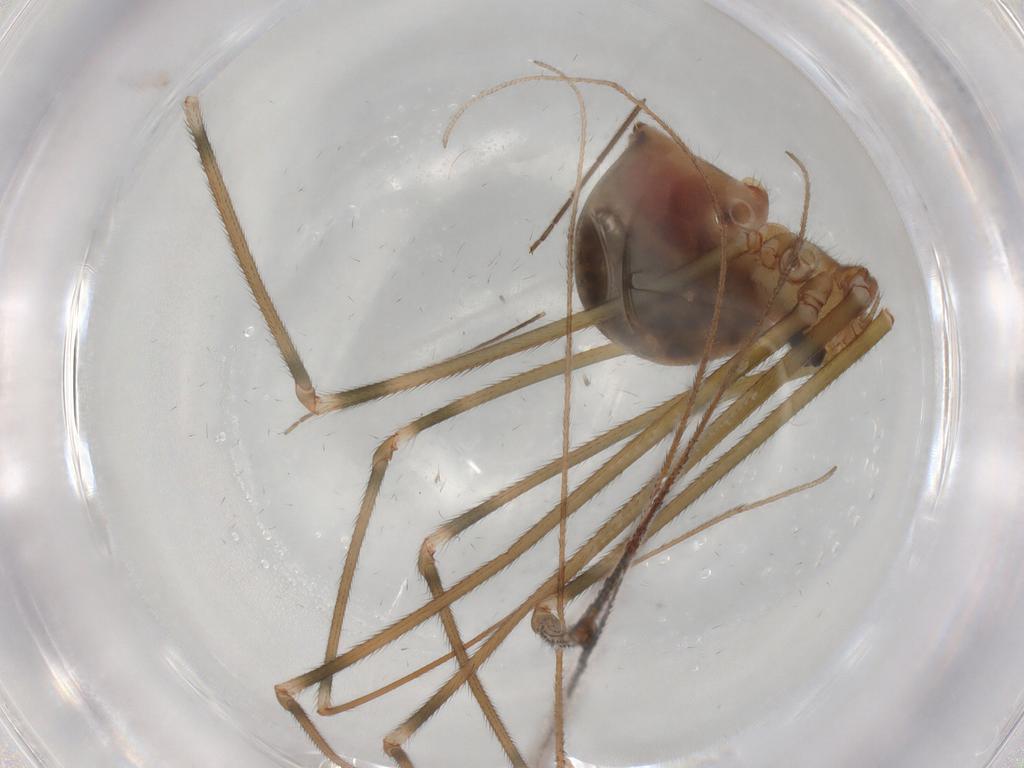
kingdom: Animalia
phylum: Arthropoda
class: Arachnida
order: Araneae
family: Pholcidae
